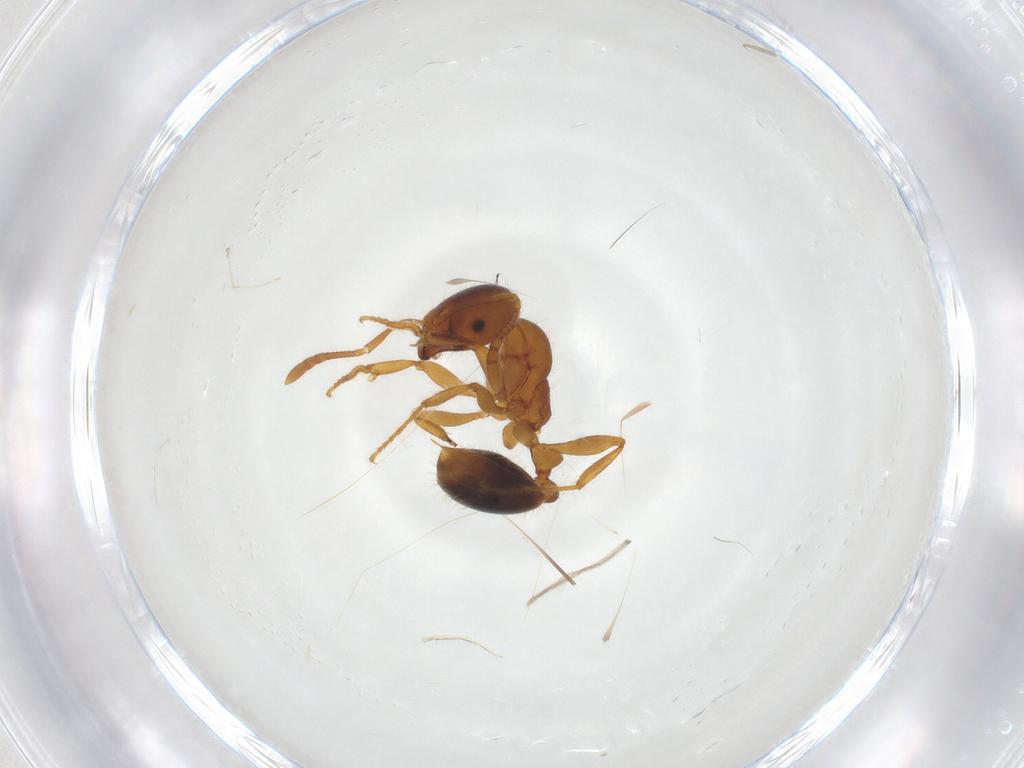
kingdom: Animalia
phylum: Arthropoda
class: Insecta
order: Hymenoptera
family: Formicidae
